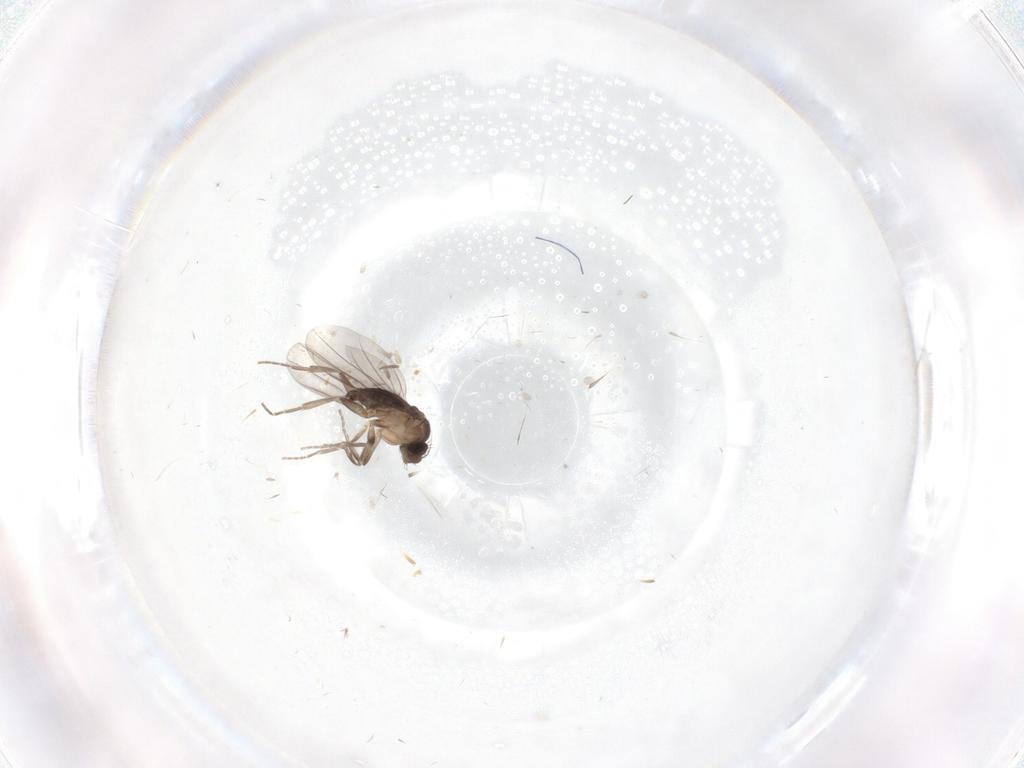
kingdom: Animalia
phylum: Arthropoda
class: Insecta
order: Diptera
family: Phoridae
